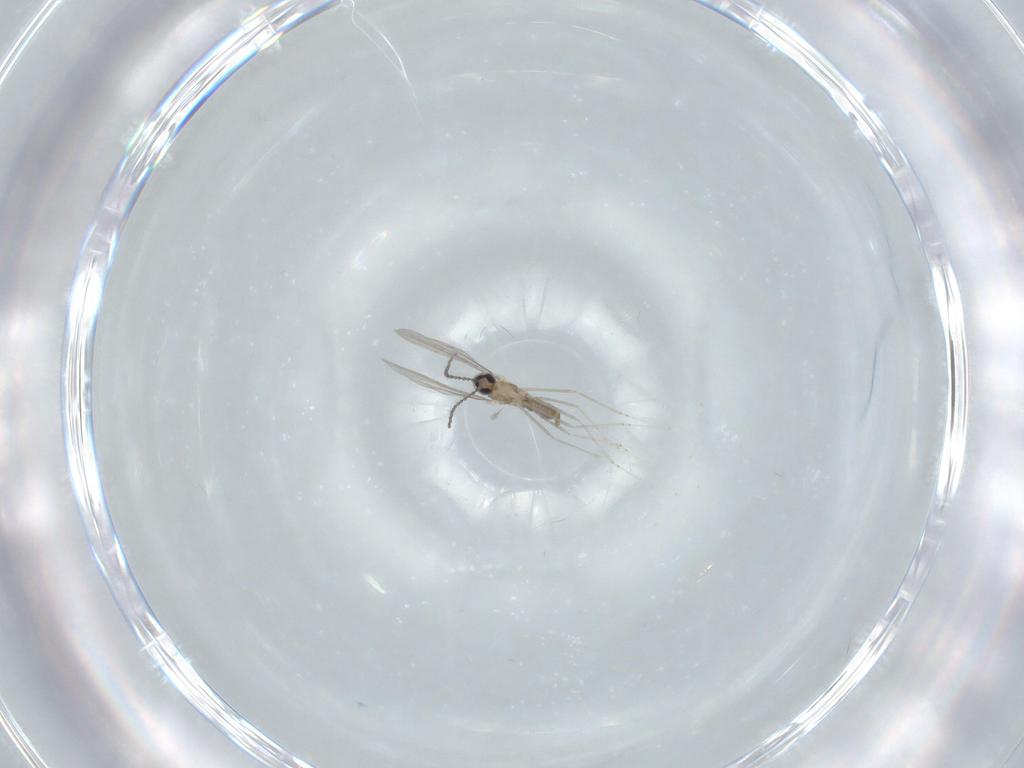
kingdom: Animalia
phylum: Arthropoda
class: Insecta
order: Diptera
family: Cecidomyiidae
